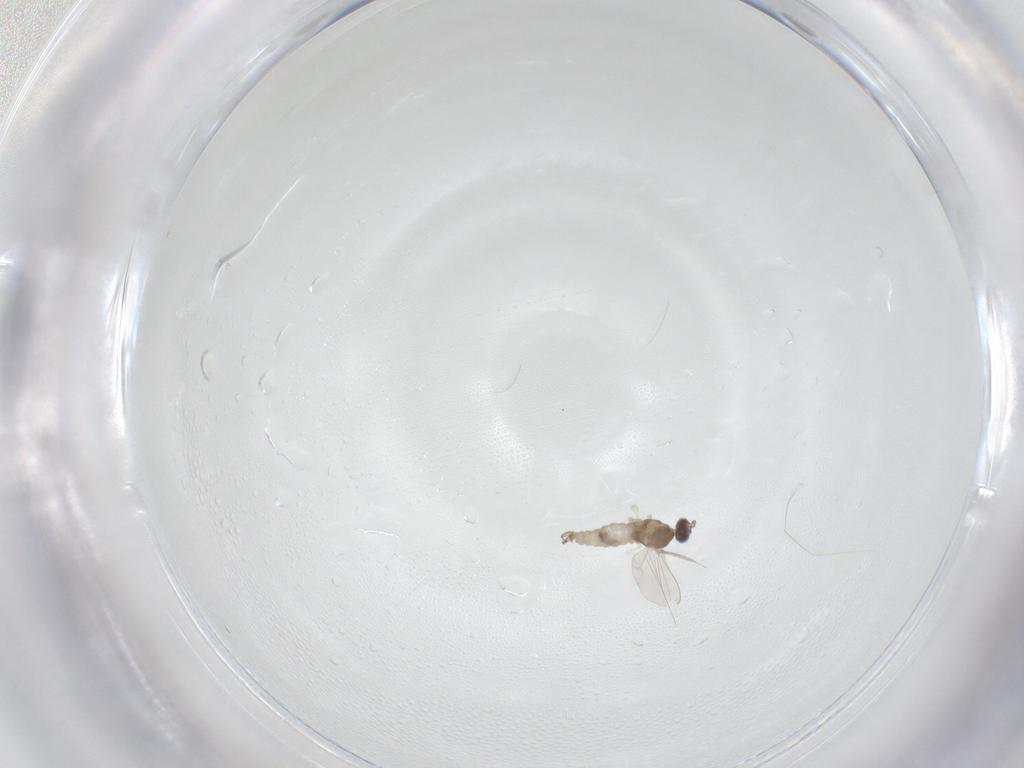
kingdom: Animalia
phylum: Arthropoda
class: Insecta
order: Diptera
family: Cecidomyiidae
